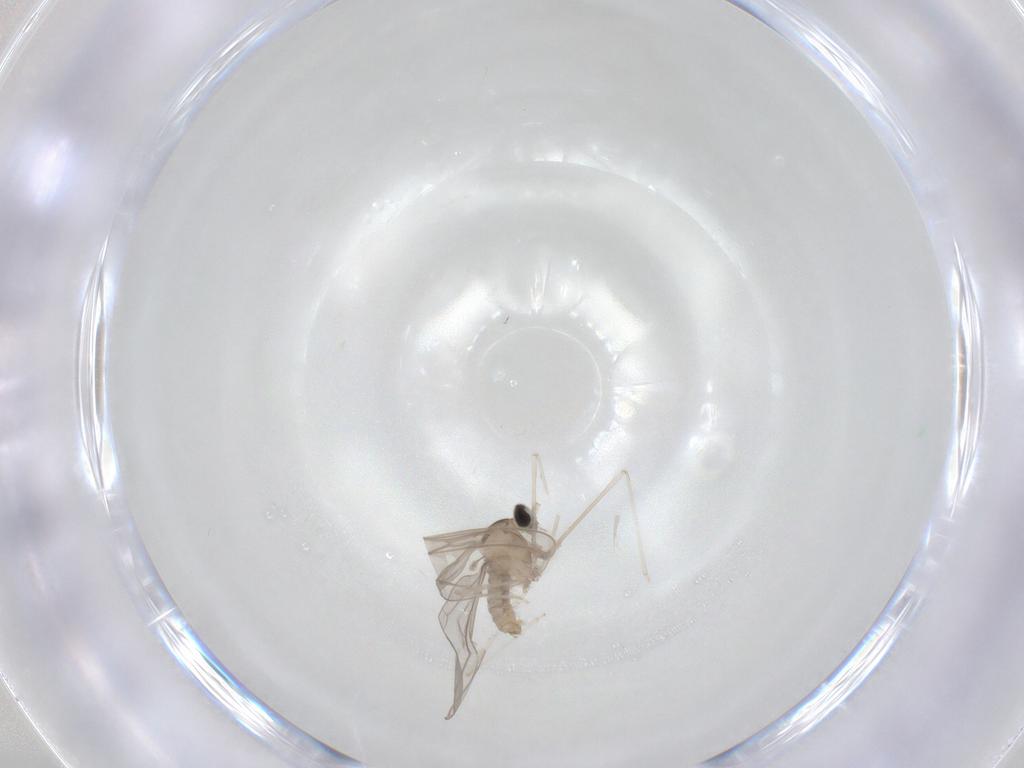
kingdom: Animalia
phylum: Arthropoda
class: Insecta
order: Diptera
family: Cecidomyiidae
